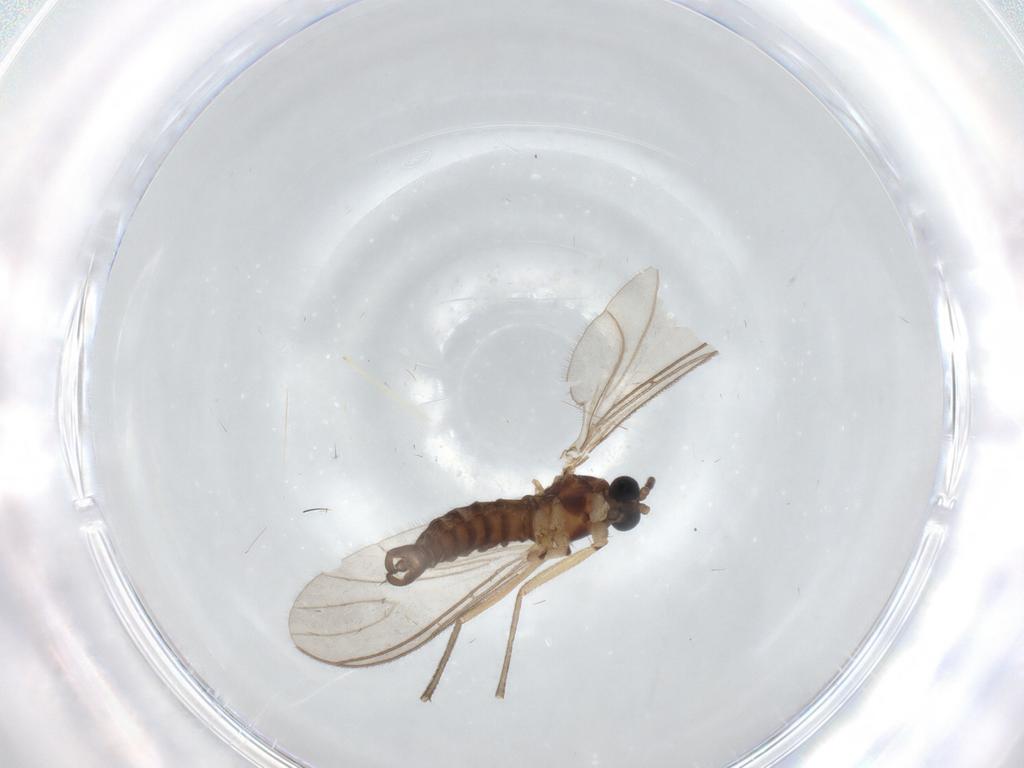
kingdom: Animalia
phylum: Arthropoda
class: Insecta
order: Diptera
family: Sciaridae
